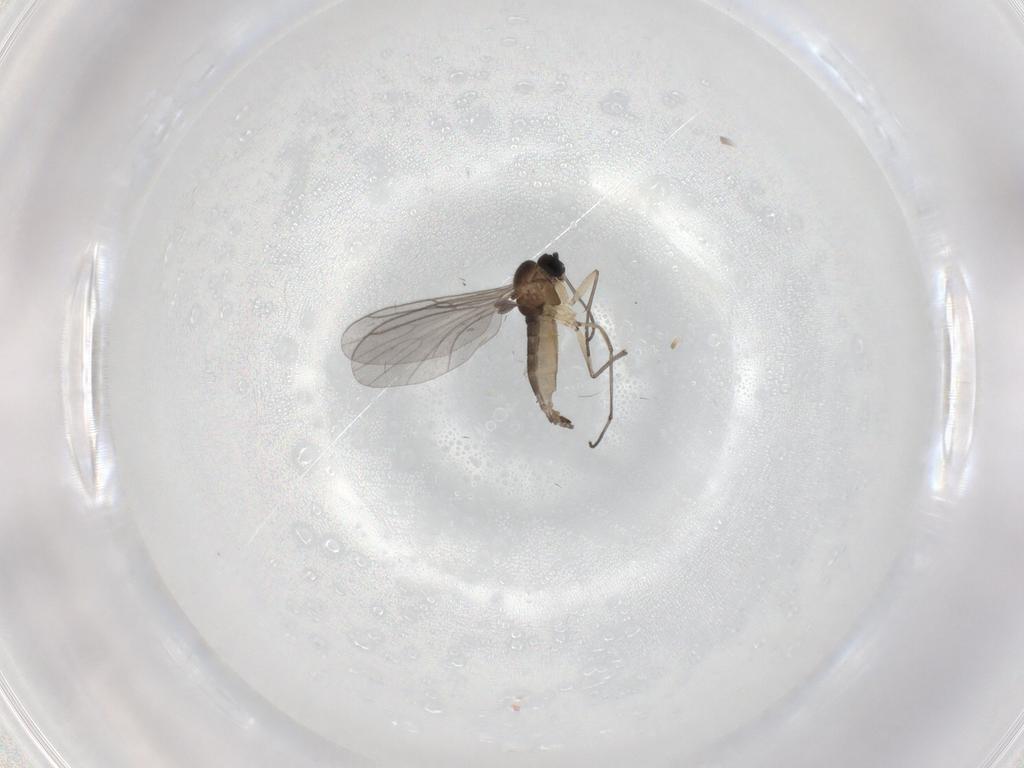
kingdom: Animalia
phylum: Arthropoda
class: Insecta
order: Diptera
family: Sciaridae
